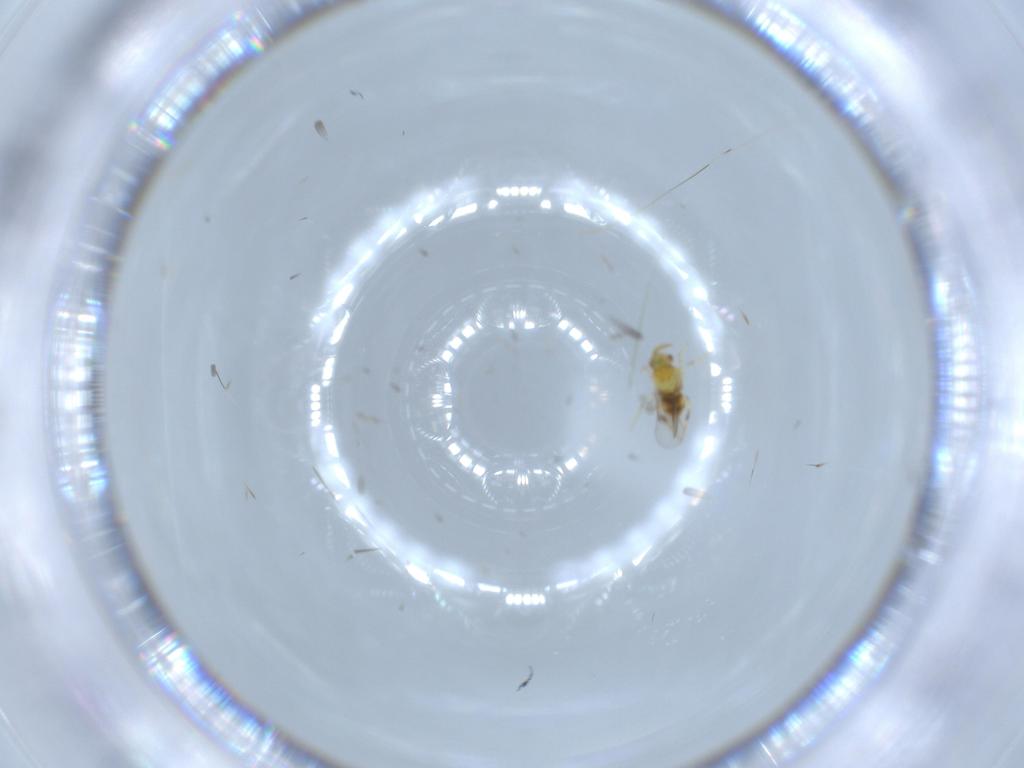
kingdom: Animalia
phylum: Arthropoda
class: Insecta
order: Hymenoptera
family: Aphelinidae
